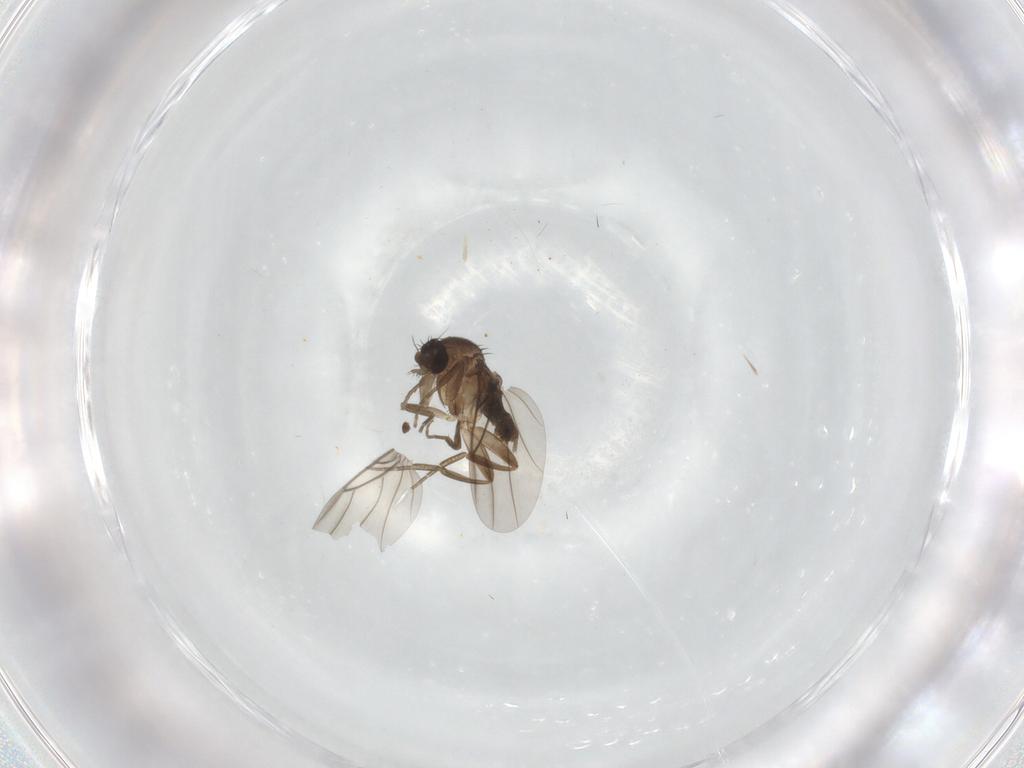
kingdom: Animalia
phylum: Arthropoda
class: Insecta
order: Diptera
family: Phoridae
